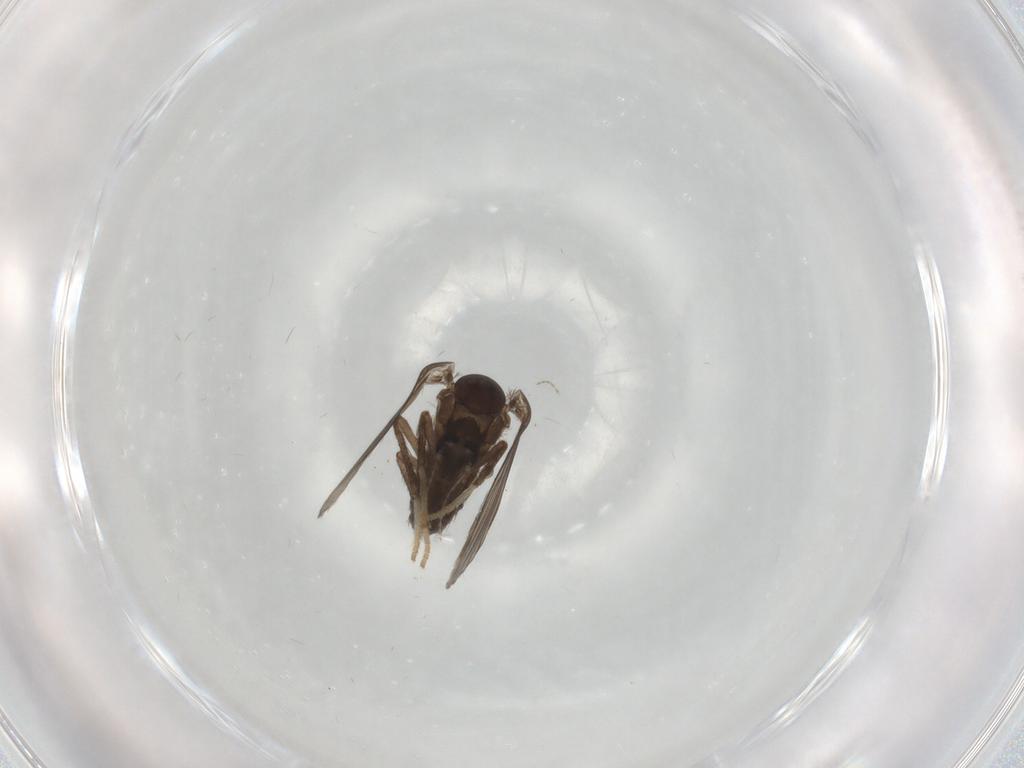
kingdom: Animalia
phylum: Arthropoda
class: Insecta
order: Diptera
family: Psychodidae
